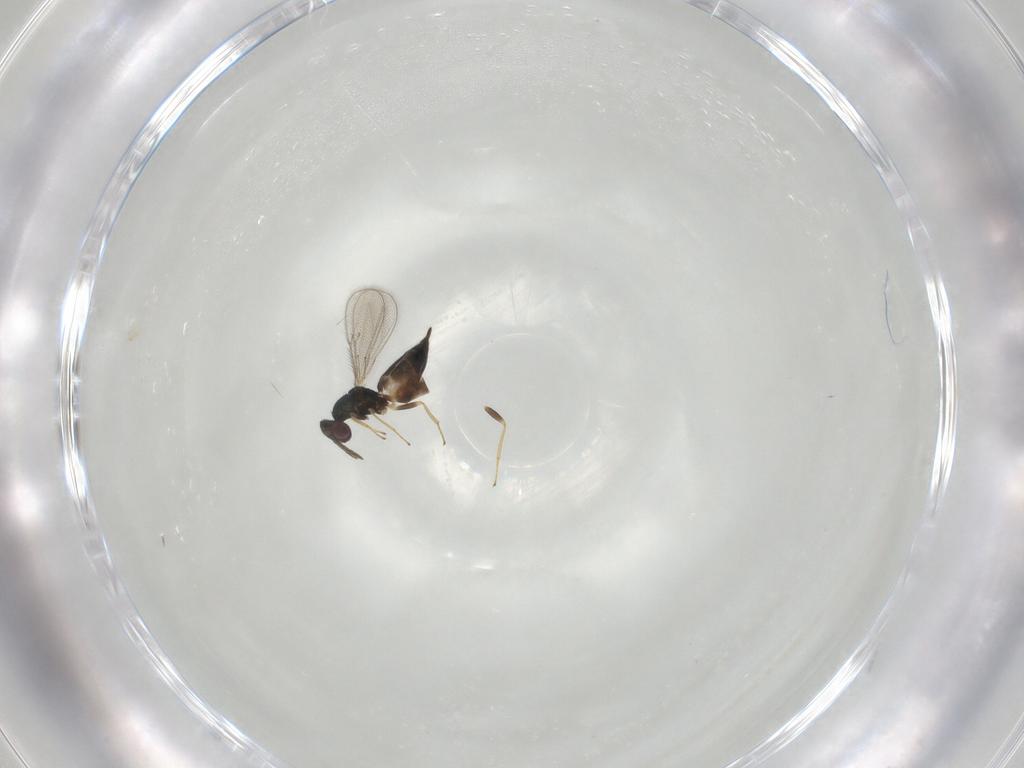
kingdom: Animalia
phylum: Arthropoda
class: Insecta
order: Hymenoptera
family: Eulophidae
